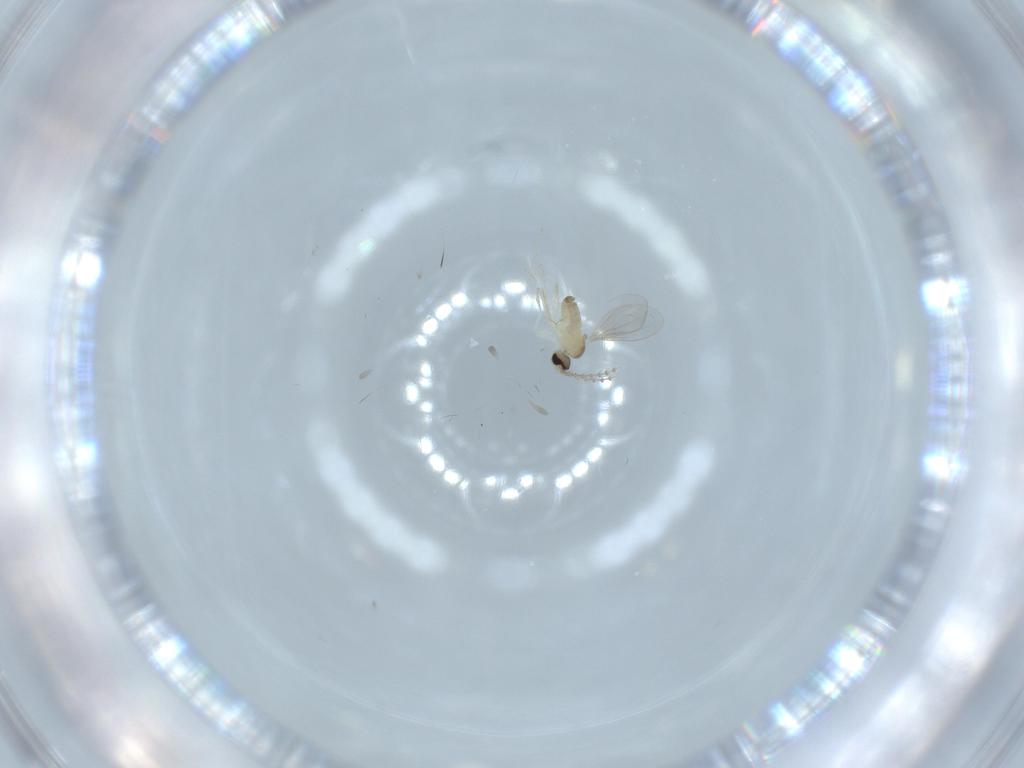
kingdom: Animalia
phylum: Arthropoda
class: Insecta
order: Diptera
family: Cecidomyiidae
